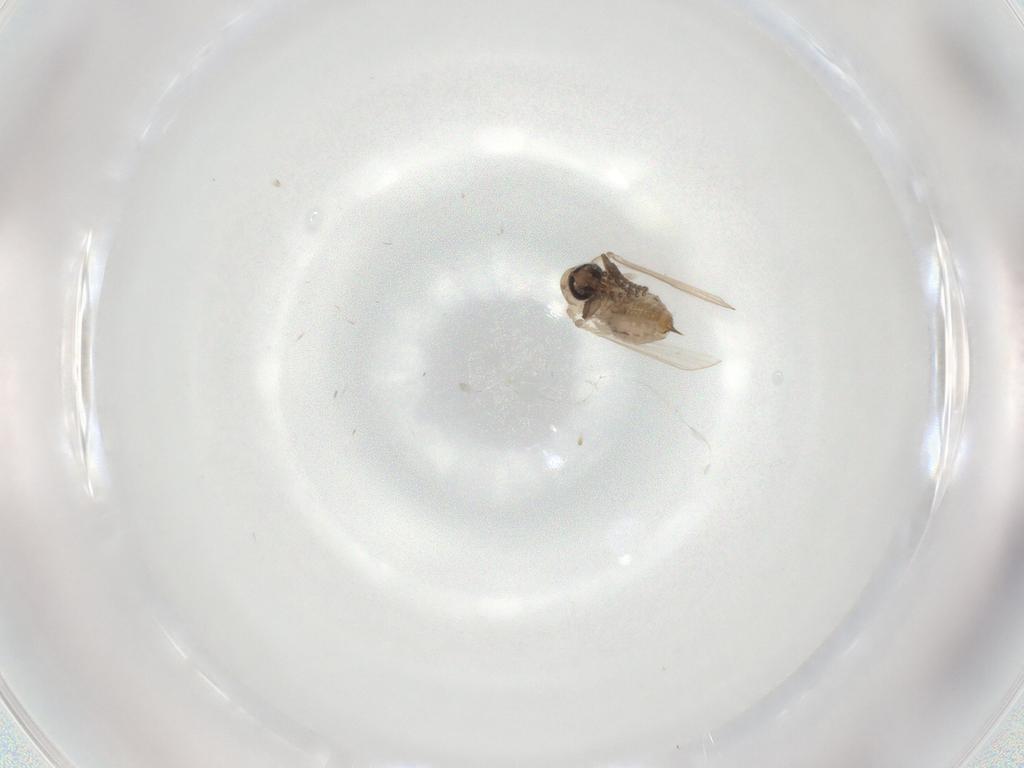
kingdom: Animalia
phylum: Arthropoda
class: Insecta
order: Diptera
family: Psychodidae
